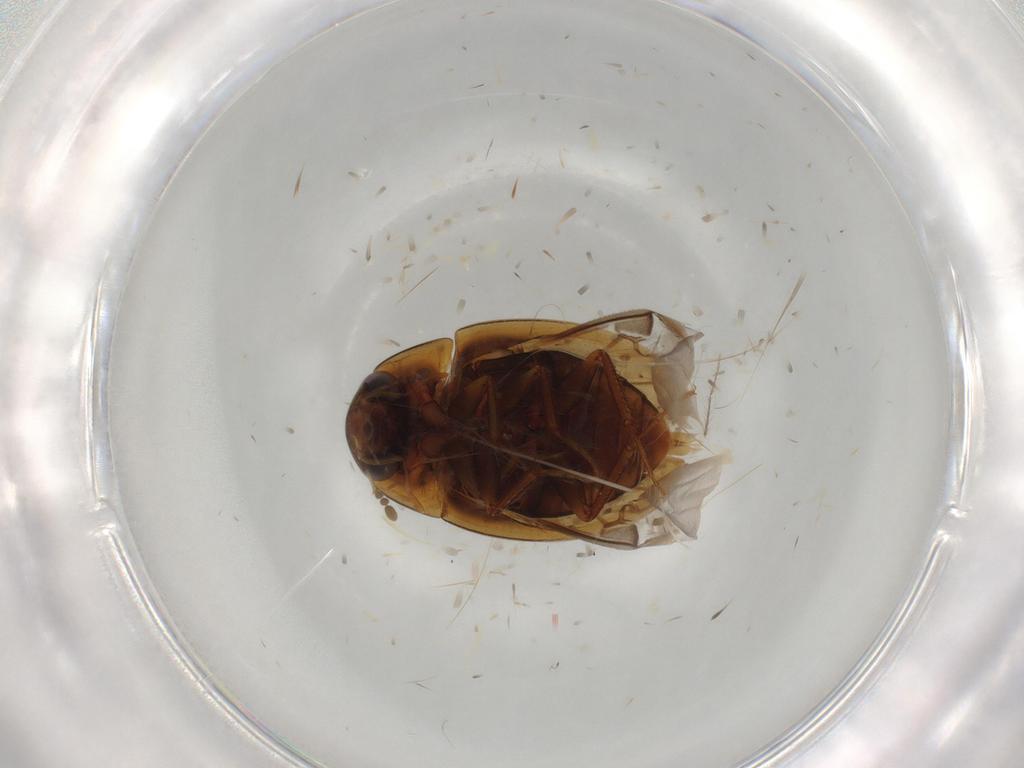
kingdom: Animalia
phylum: Arthropoda
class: Insecta
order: Coleoptera
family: Hydrophilidae
